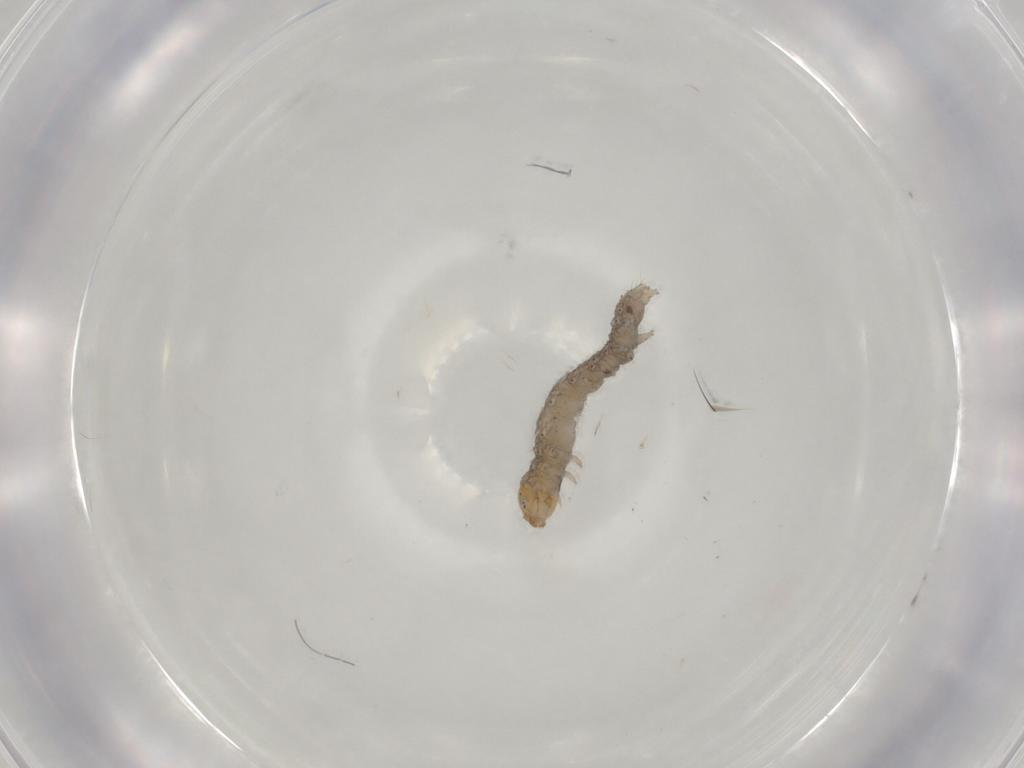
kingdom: Animalia
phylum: Arthropoda
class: Insecta
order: Lepidoptera
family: Erebidae
